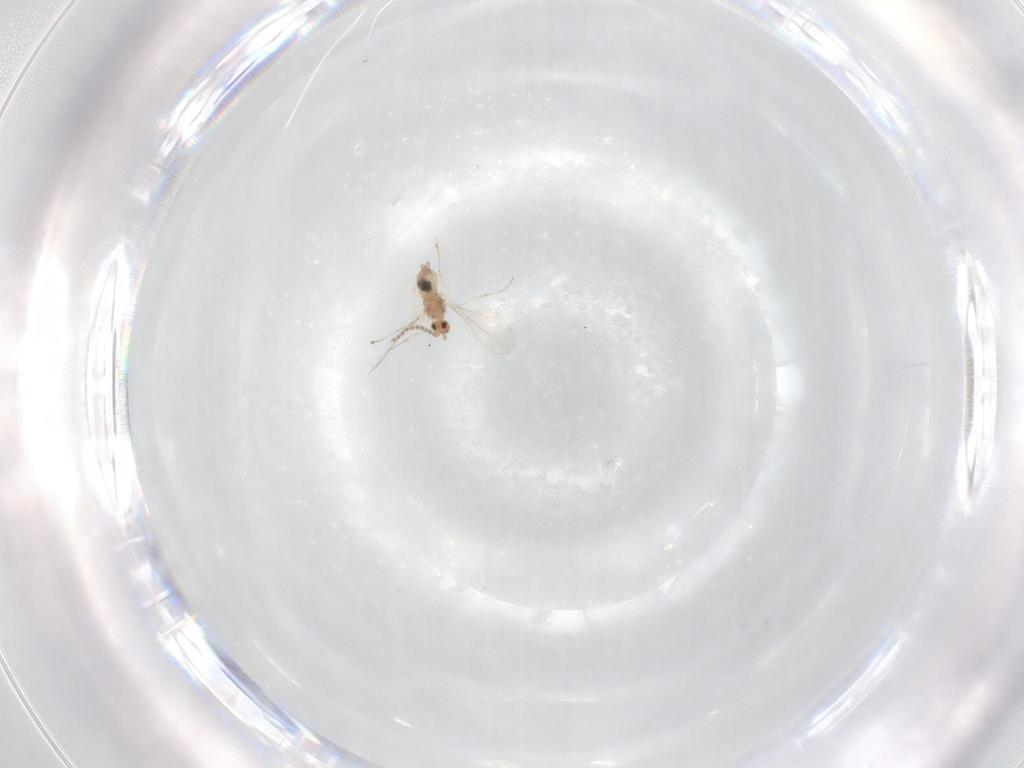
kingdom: Animalia
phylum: Arthropoda
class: Insecta
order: Diptera
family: Cecidomyiidae
